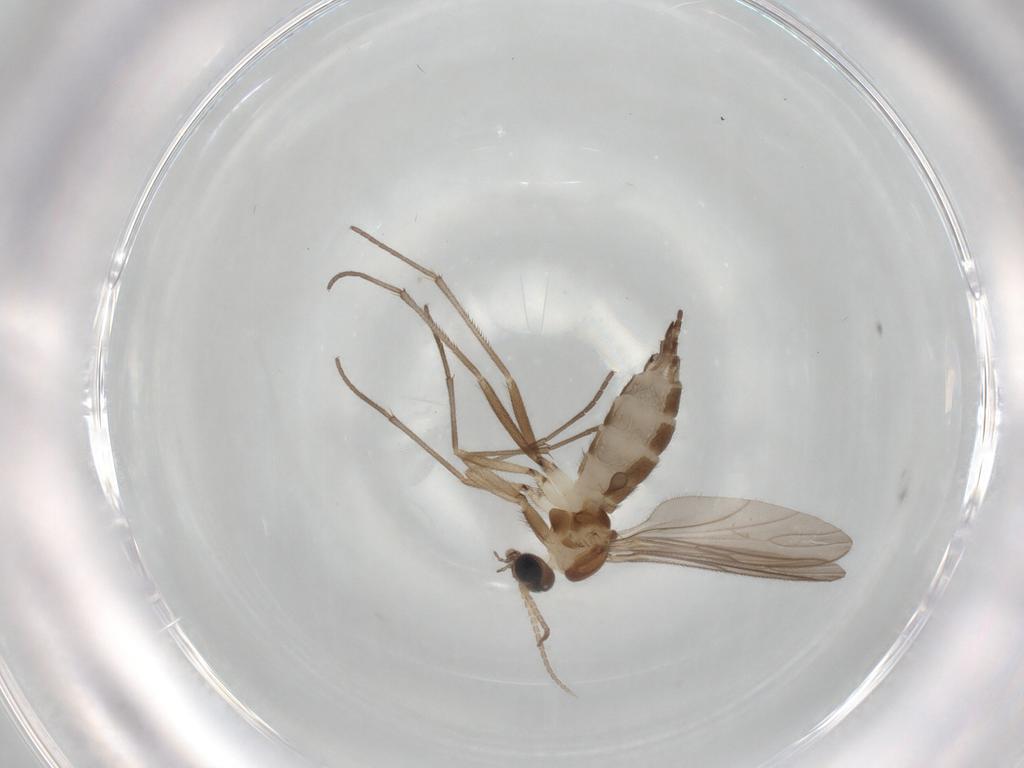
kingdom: Animalia
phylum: Arthropoda
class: Insecta
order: Diptera
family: Sciaridae
